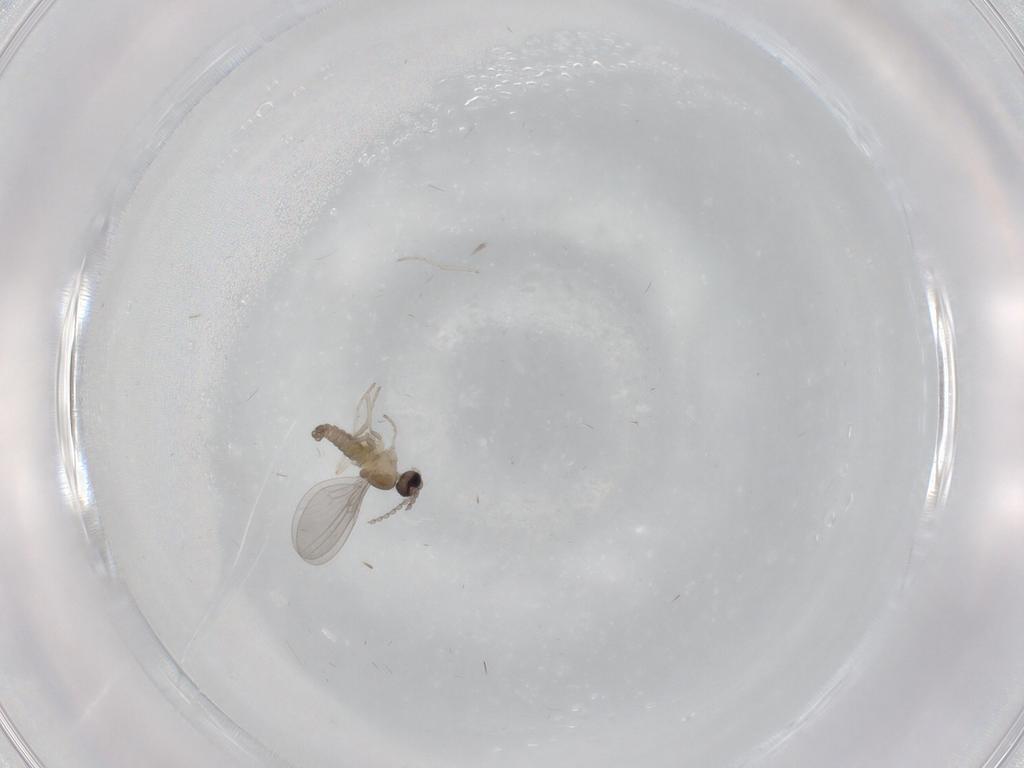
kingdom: Animalia
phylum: Arthropoda
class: Insecta
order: Diptera
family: Cecidomyiidae
